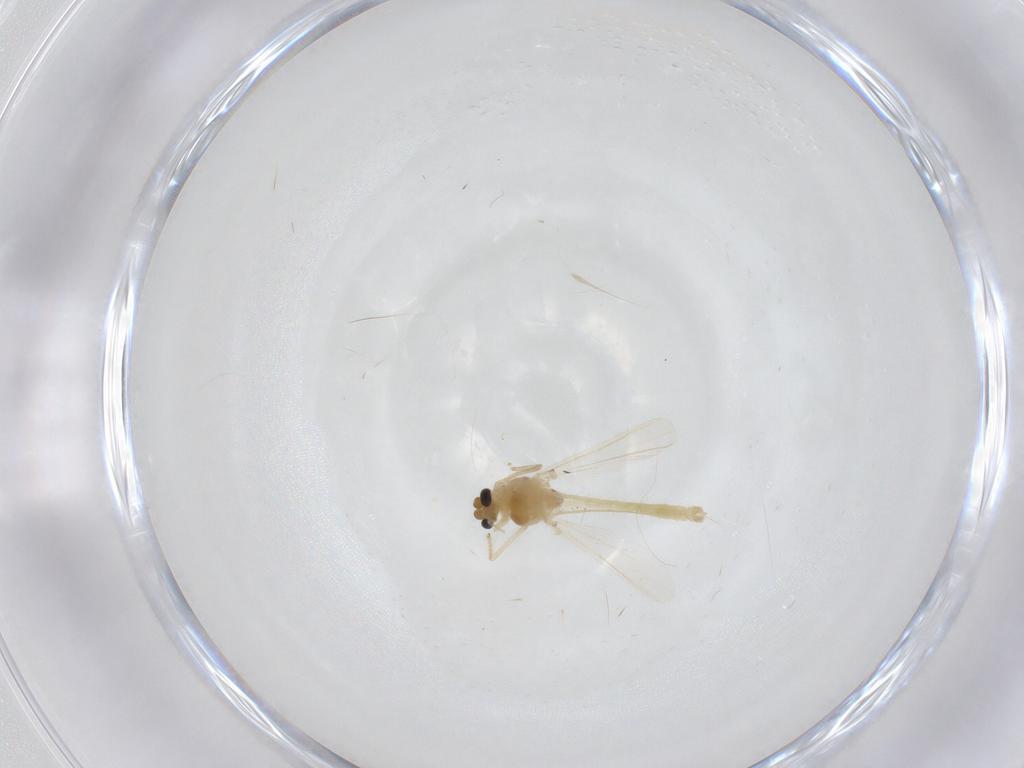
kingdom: Animalia
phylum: Arthropoda
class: Insecta
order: Diptera
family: Chironomidae
